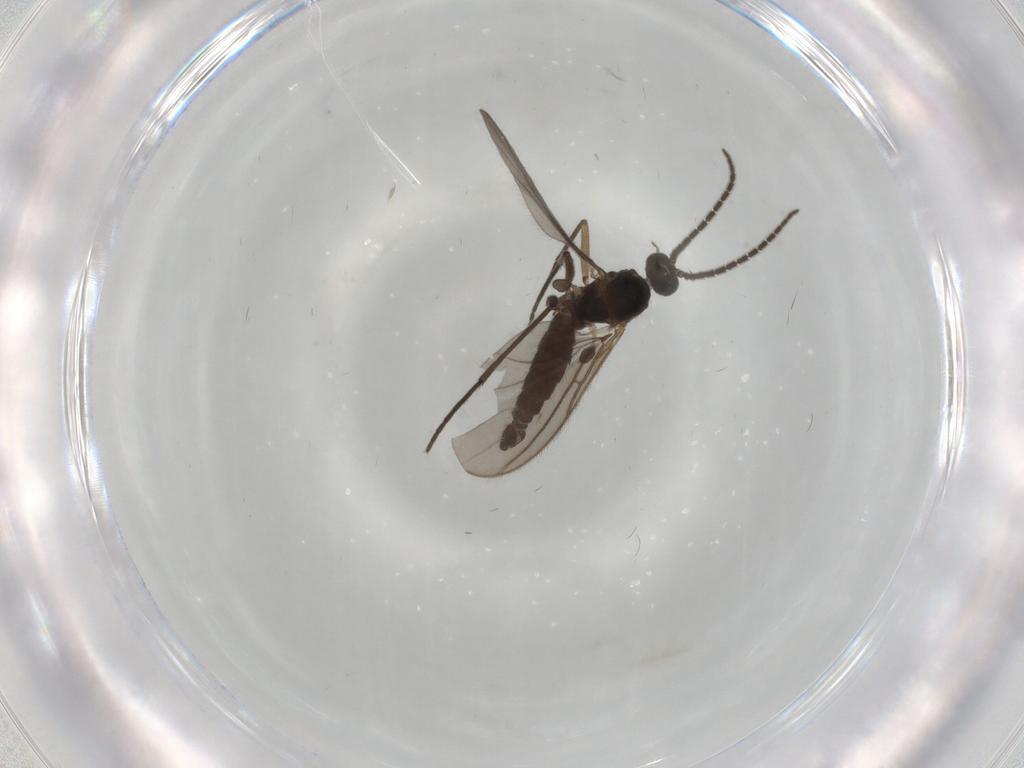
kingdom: Animalia
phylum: Arthropoda
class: Insecta
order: Diptera
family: Sciaridae
